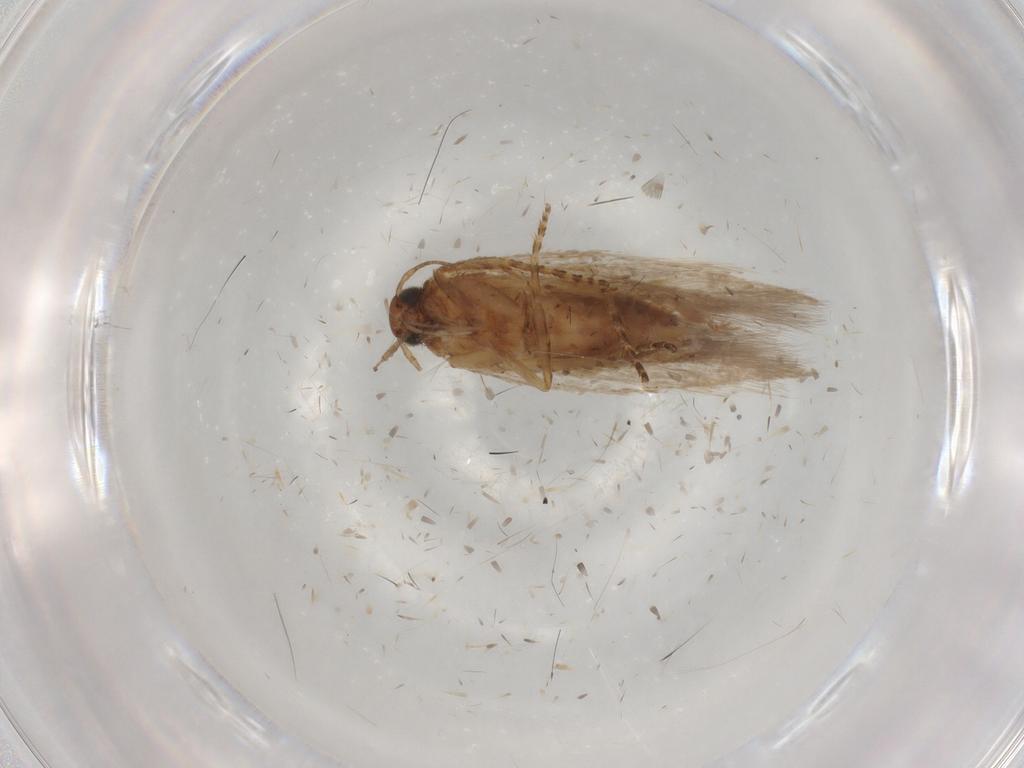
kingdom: Animalia
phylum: Arthropoda
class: Insecta
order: Lepidoptera
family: Gelechiidae
